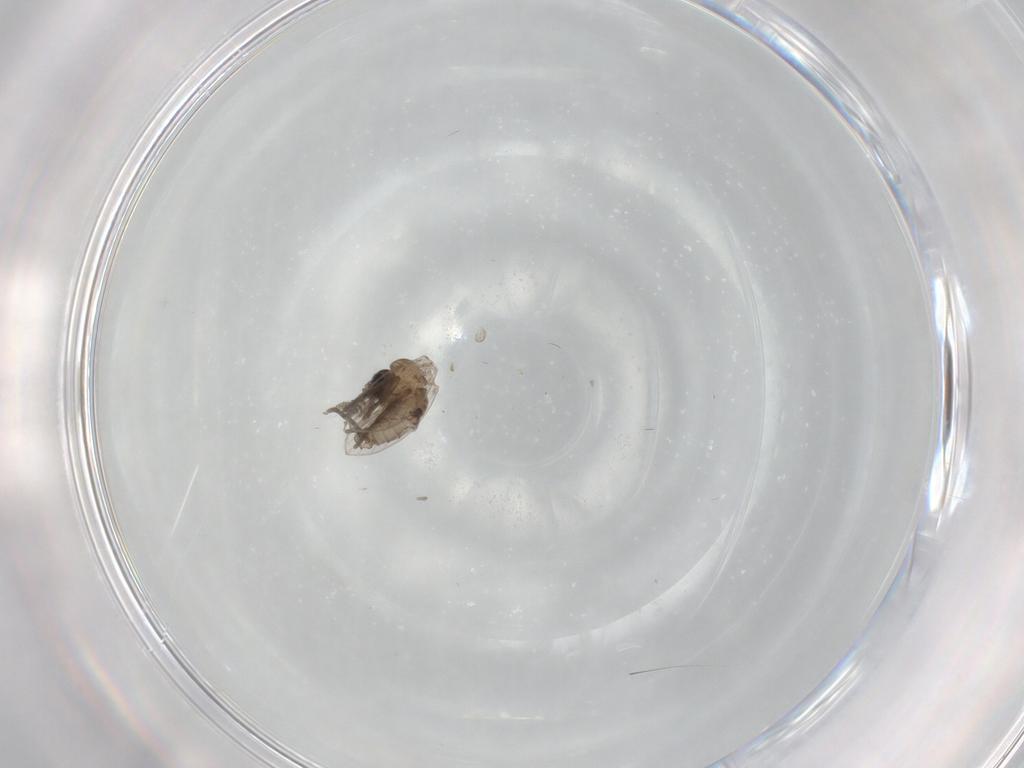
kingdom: Animalia
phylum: Arthropoda
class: Insecta
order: Diptera
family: Psychodidae
